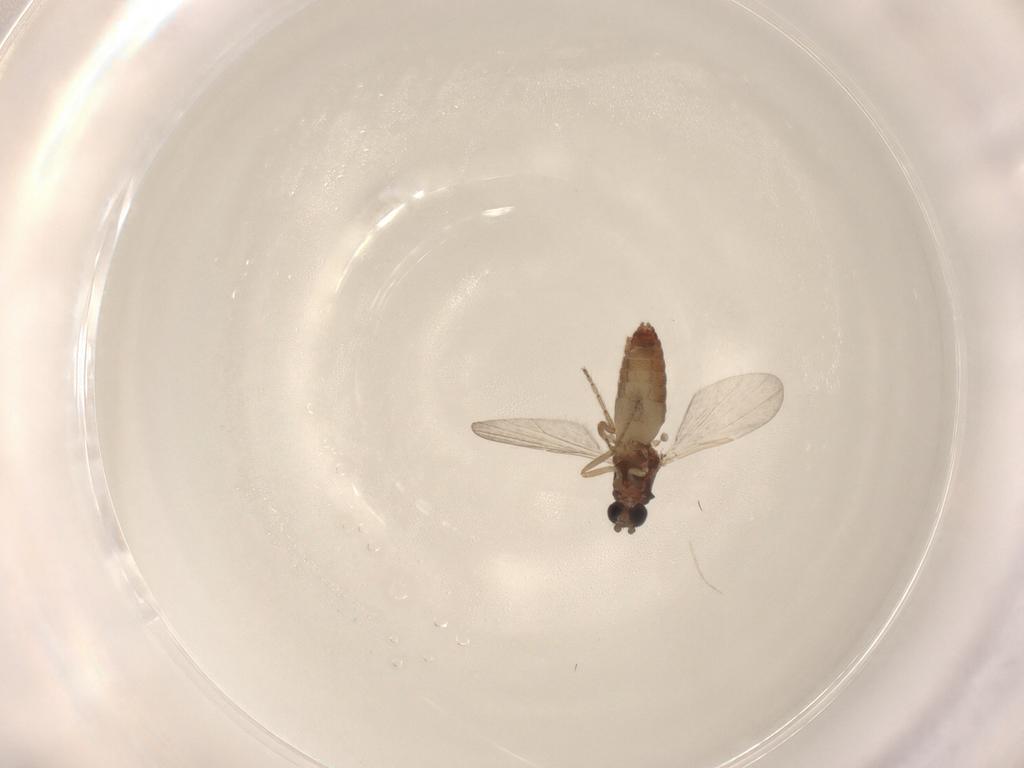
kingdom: Animalia
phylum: Arthropoda
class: Insecta
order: Diptera
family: Ceratopogonidae
